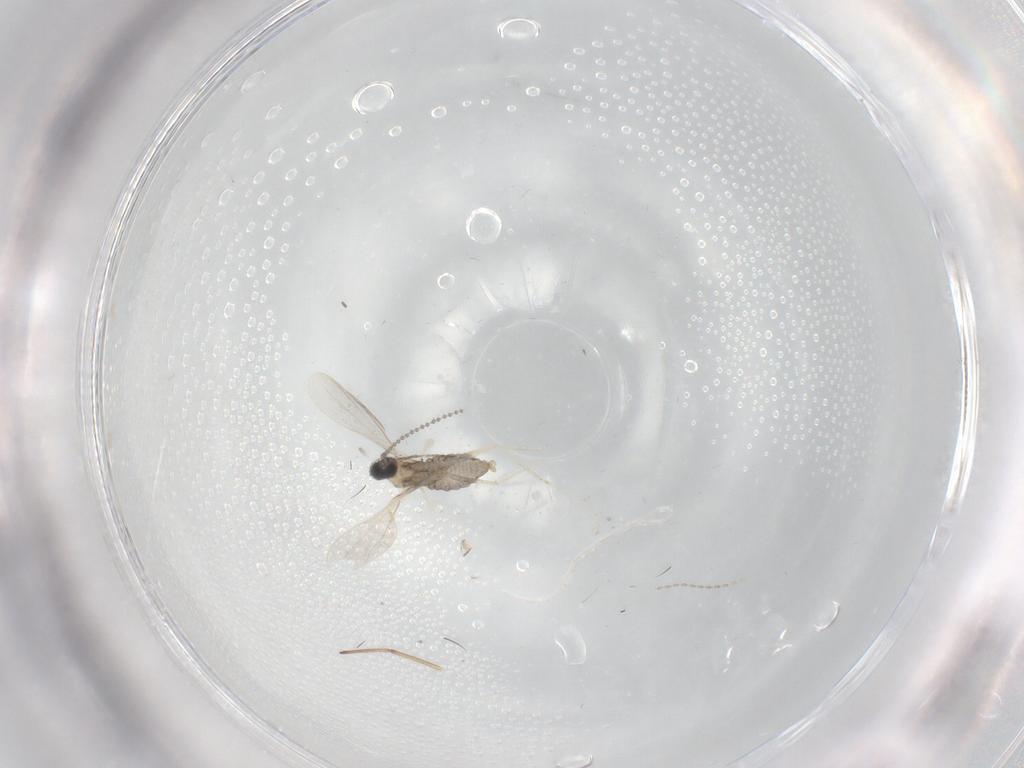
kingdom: Animalia
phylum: Arthropoda
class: Insecta
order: Diptera
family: Cecidomyiidae
